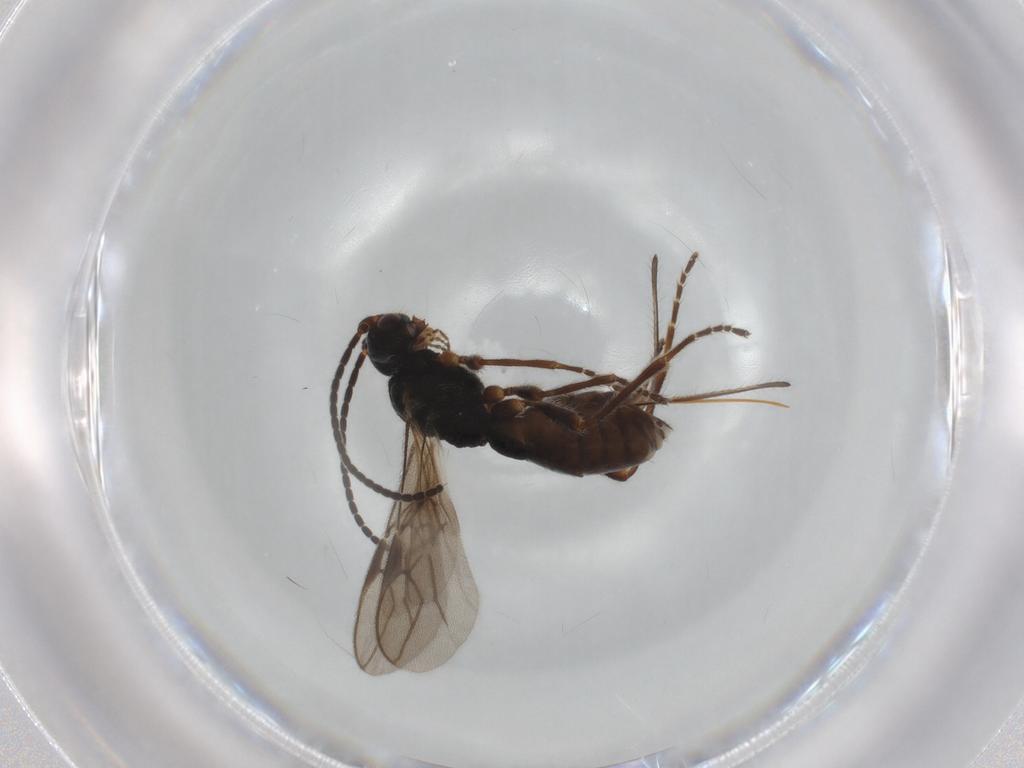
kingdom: Animalia
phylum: Arthropoda
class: Insecta
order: Hymenoptera
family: Braconidae
